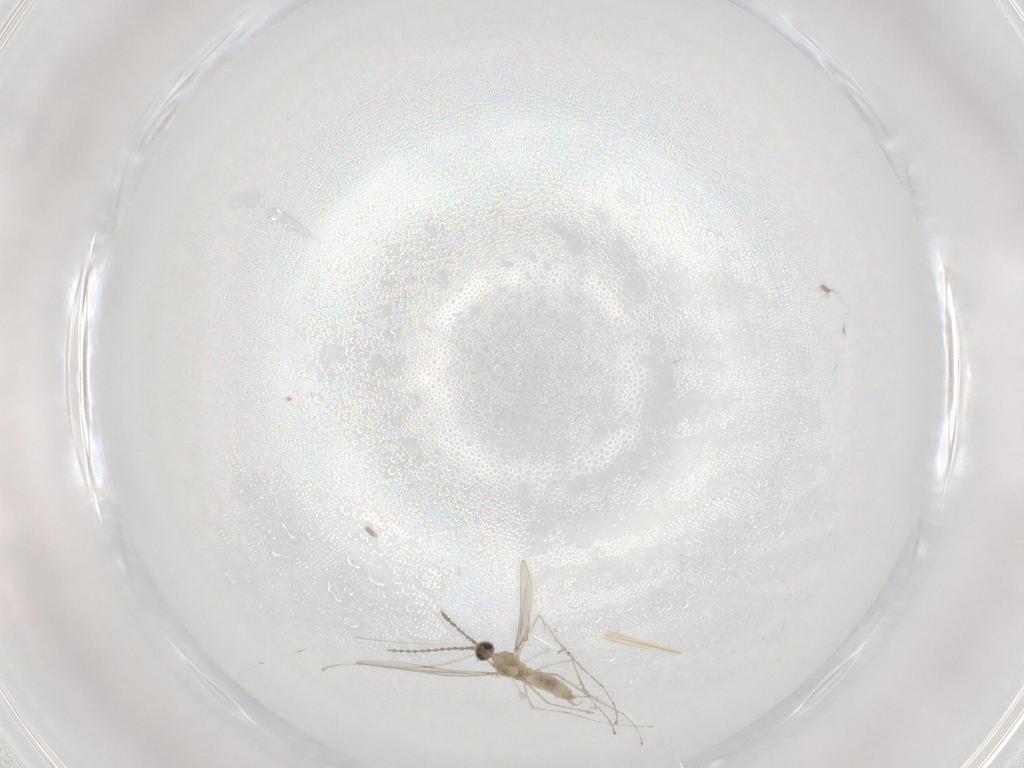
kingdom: Animalia
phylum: Arthropoda
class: Insecta
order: Diptera
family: Cecidomyiidae
